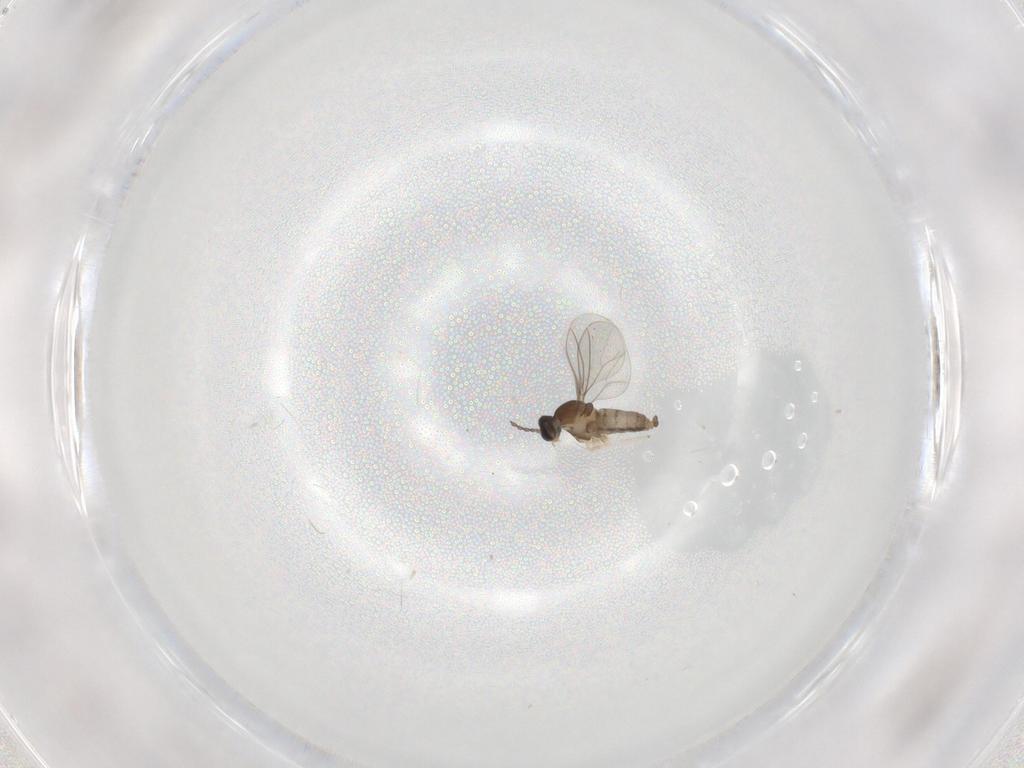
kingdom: Animalia
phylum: Arthropoda
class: Insecta
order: Diptera
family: Cecidomyiidae
